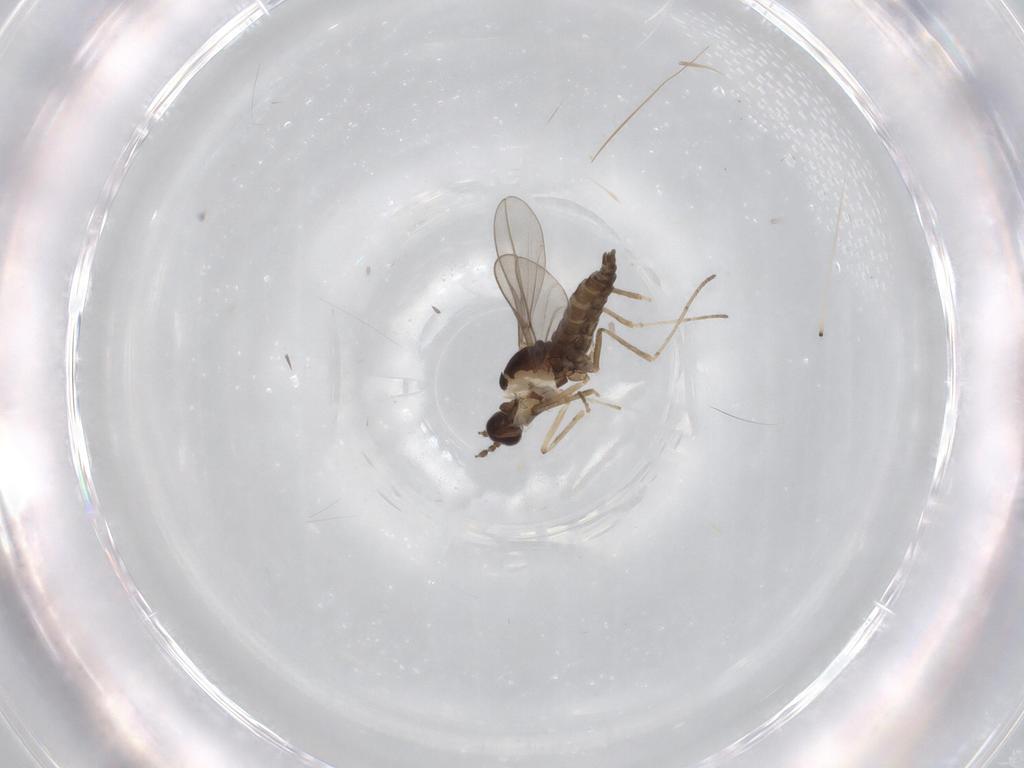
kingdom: Animalia
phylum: Arthropoda
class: Insecta
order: Diptera
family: Cecidomyiidae
